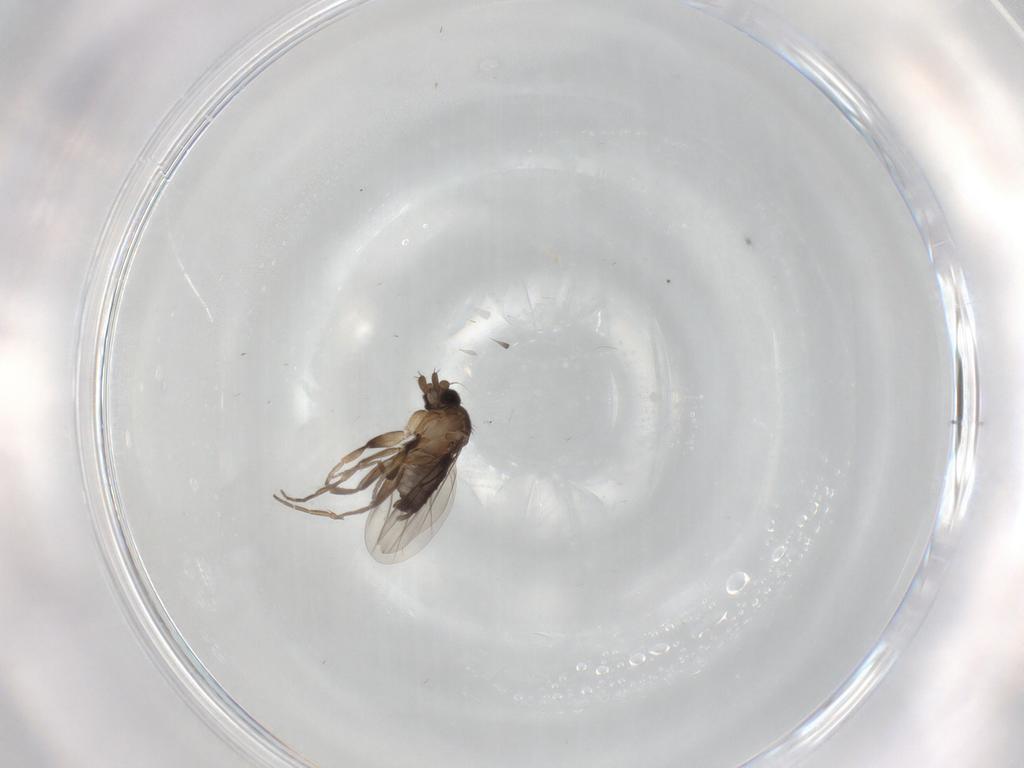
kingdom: Animalia
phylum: Arthropoda
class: Insecta
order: Diptera
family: Phoridae
